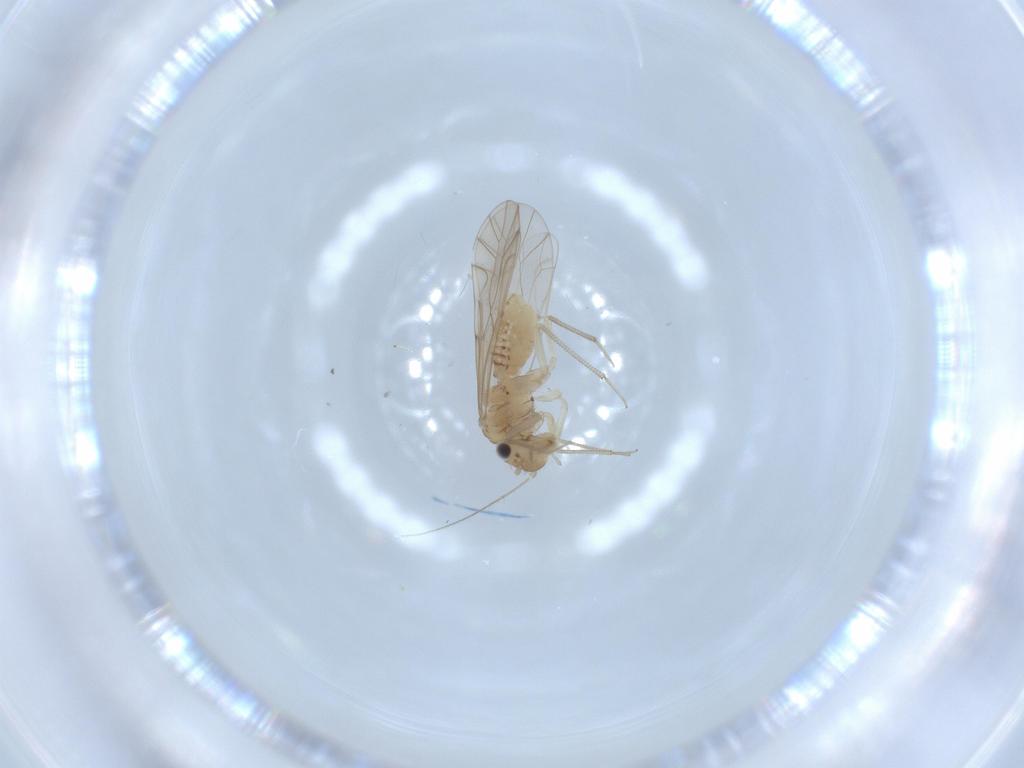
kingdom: Animalia
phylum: Arthropoda
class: Insecta
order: Psocodea
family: Lachesillidae
